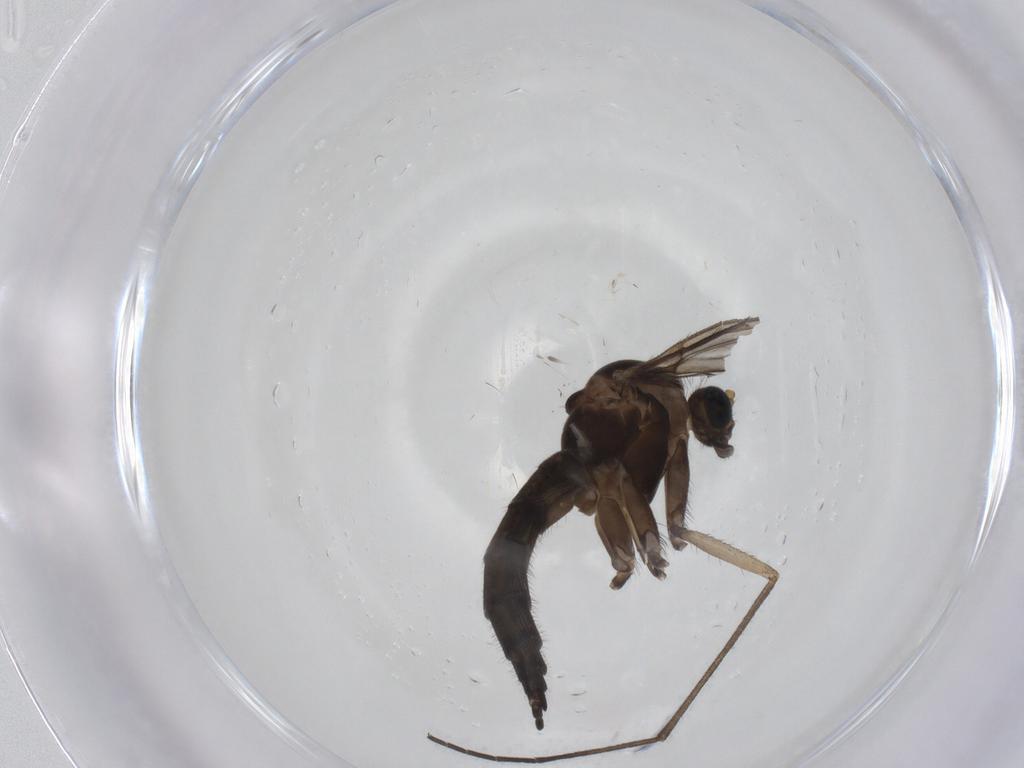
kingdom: Animalia
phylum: Arthropoda
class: Insecta
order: Diptera
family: Sciaridae
